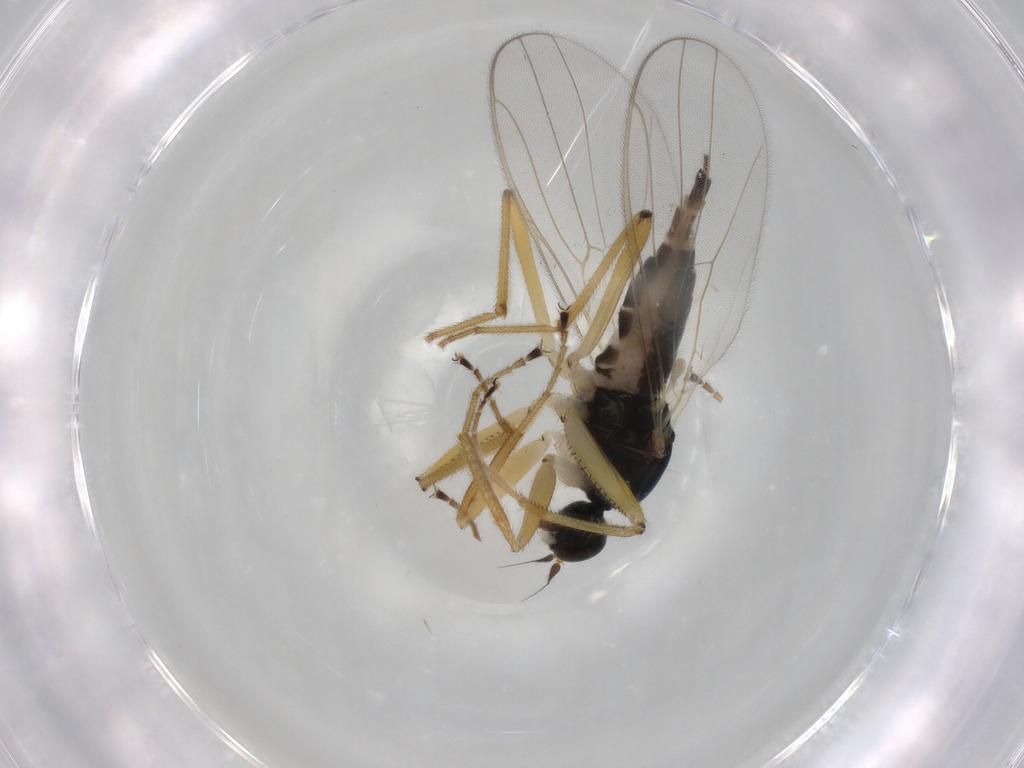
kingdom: Animalia
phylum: Arthropoda
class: Insecta
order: Diptera
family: Hybotidae
